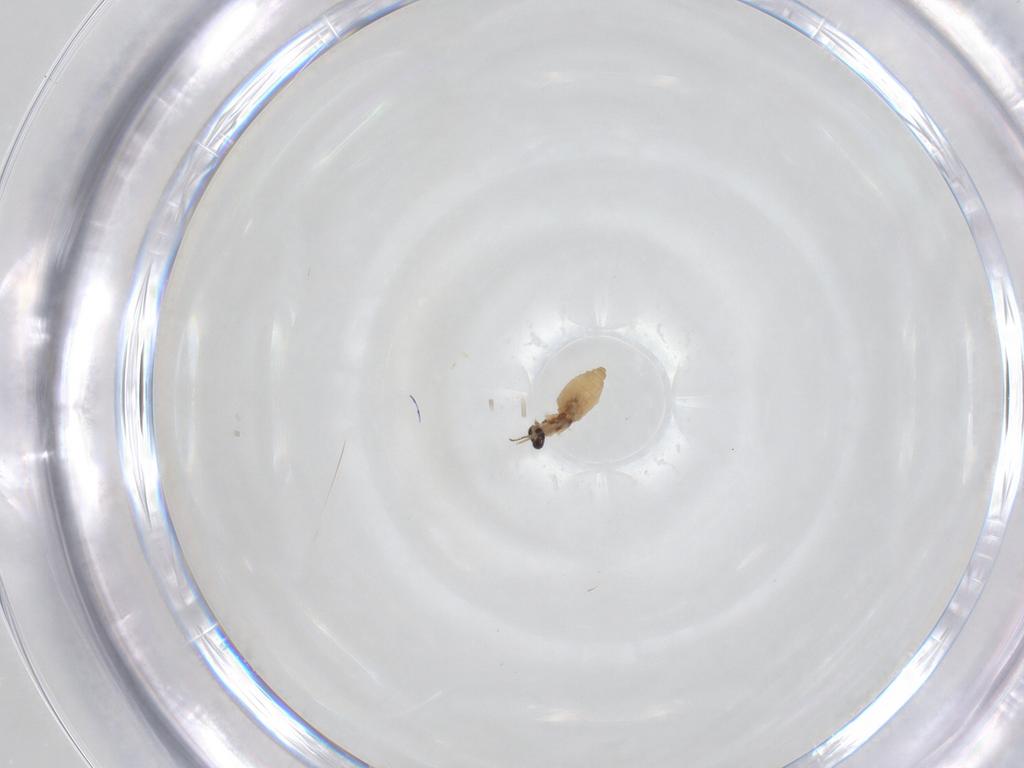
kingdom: Animalia
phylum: Arthropoda
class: Insecta
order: Diptera
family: Cecidomyiidae
